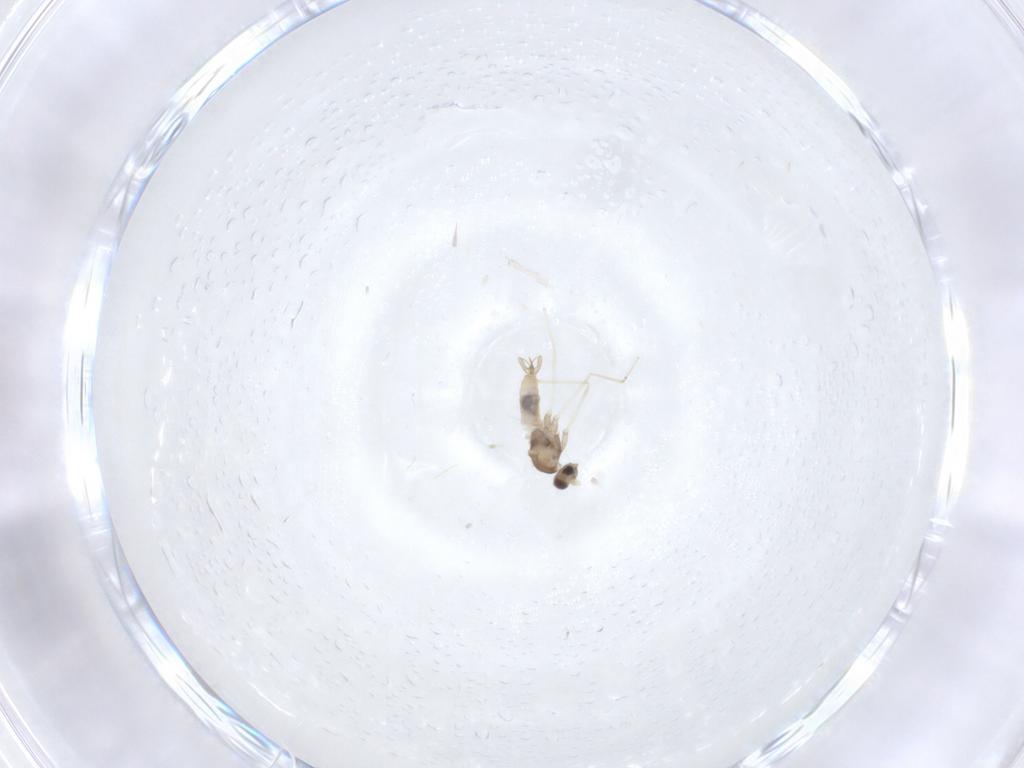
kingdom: Animalia
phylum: Arthropoda
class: Insecta
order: Diptera
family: Cecidomyiidae
